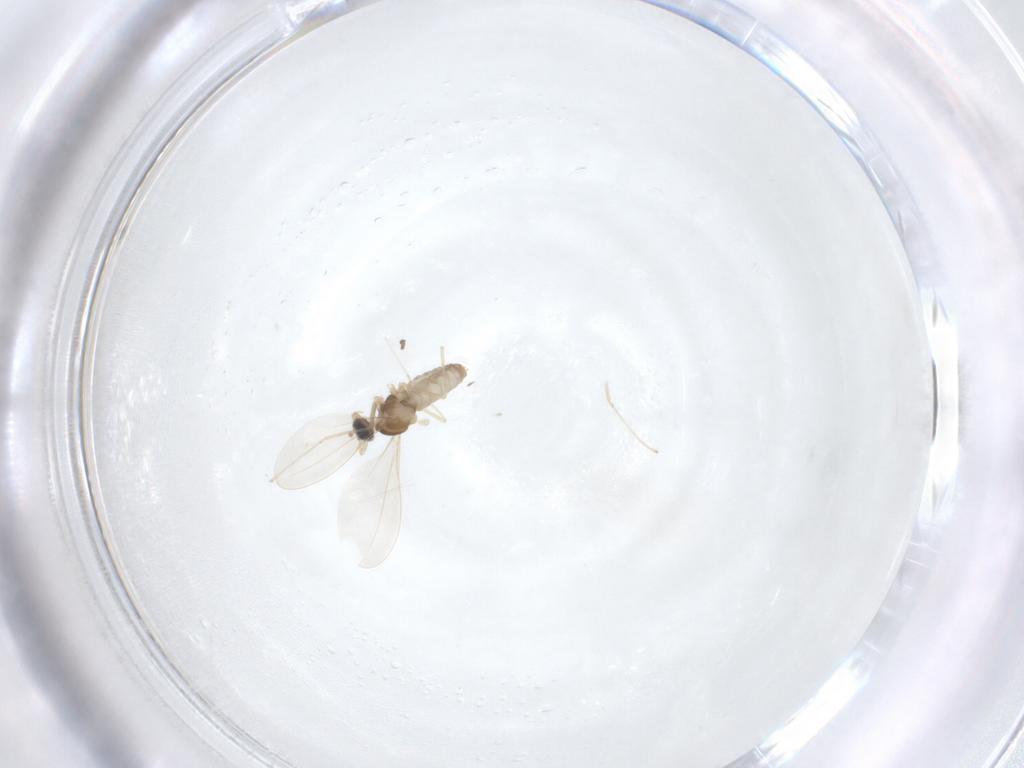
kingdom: Animalia
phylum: Arthropoda
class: Insecta
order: Diptera
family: Cecidomyiidae
